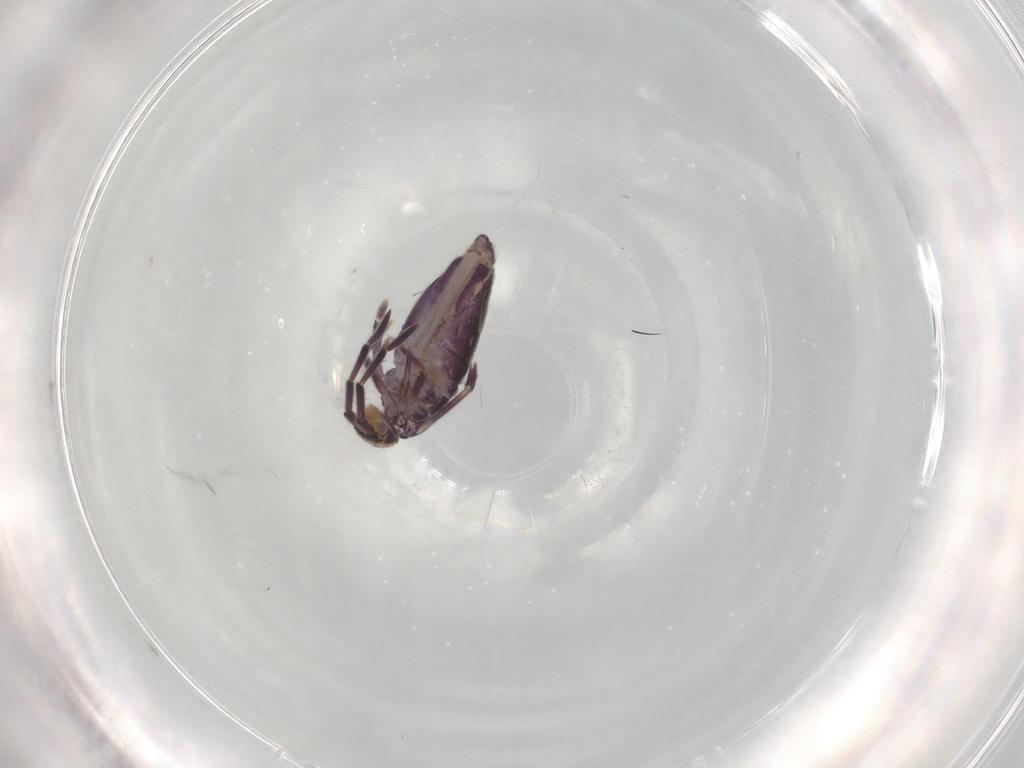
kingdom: Animalia
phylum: Arthropoda
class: Collembola
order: Entomobryomorpha
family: Entomobryidae
